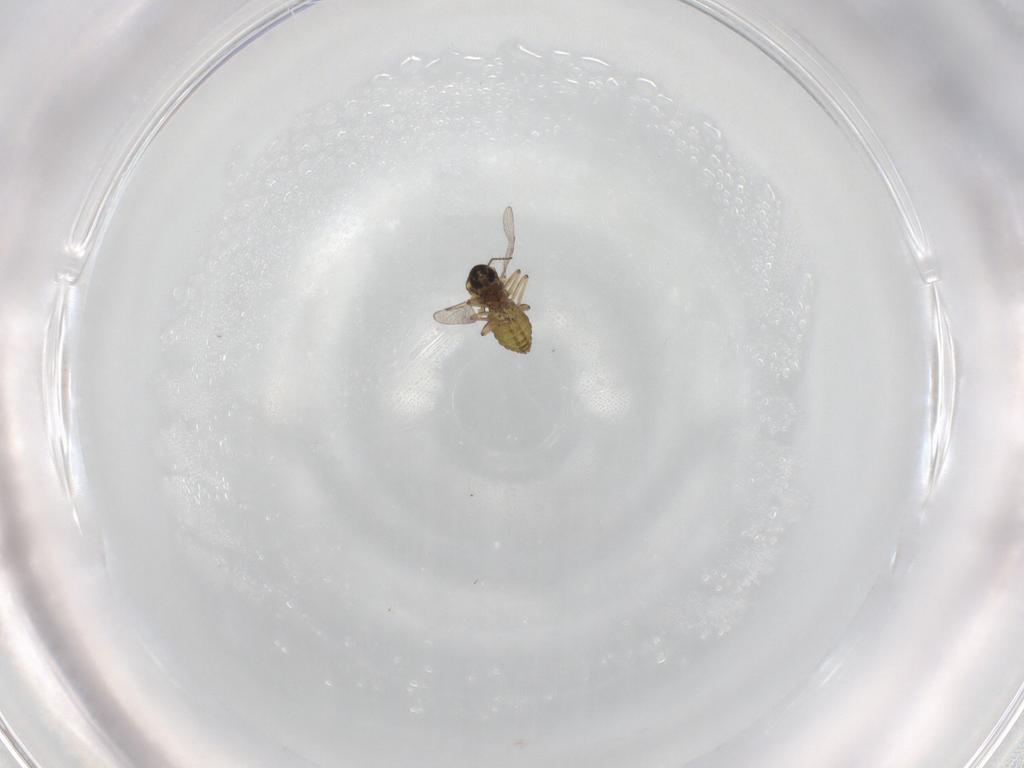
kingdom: Animalia
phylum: Arthropoda
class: Insecta
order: Diptera
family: Ceratopogonidae
